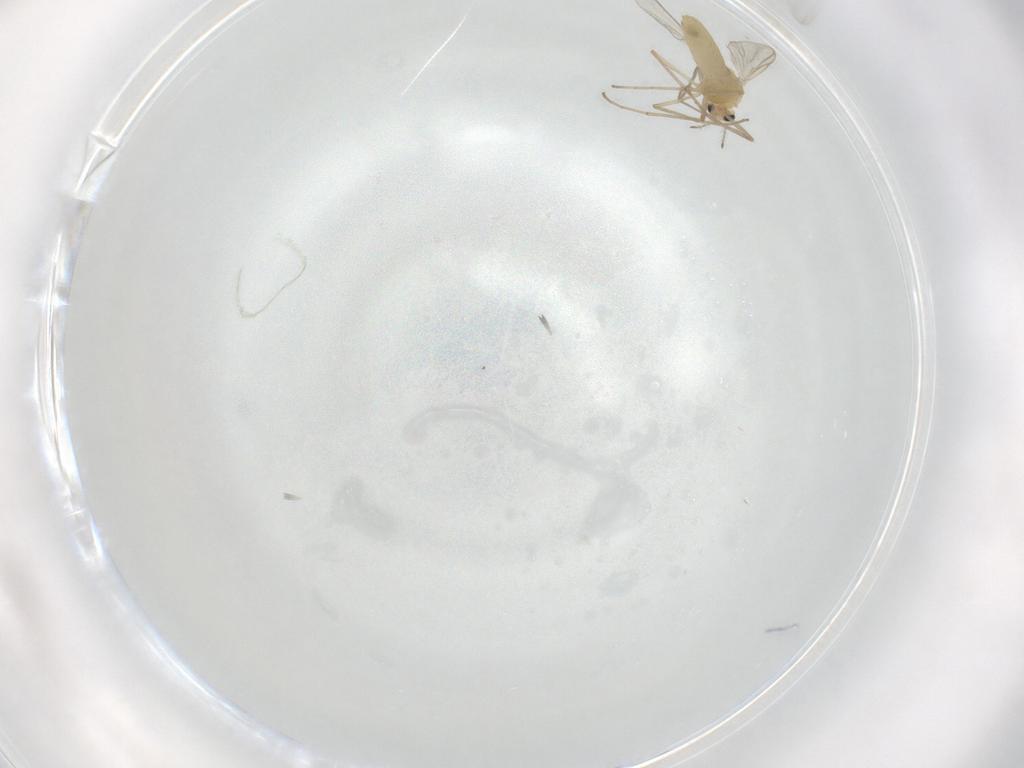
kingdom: Animalia
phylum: Arthropoda
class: Insecta
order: Diptera
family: Chironomidae
